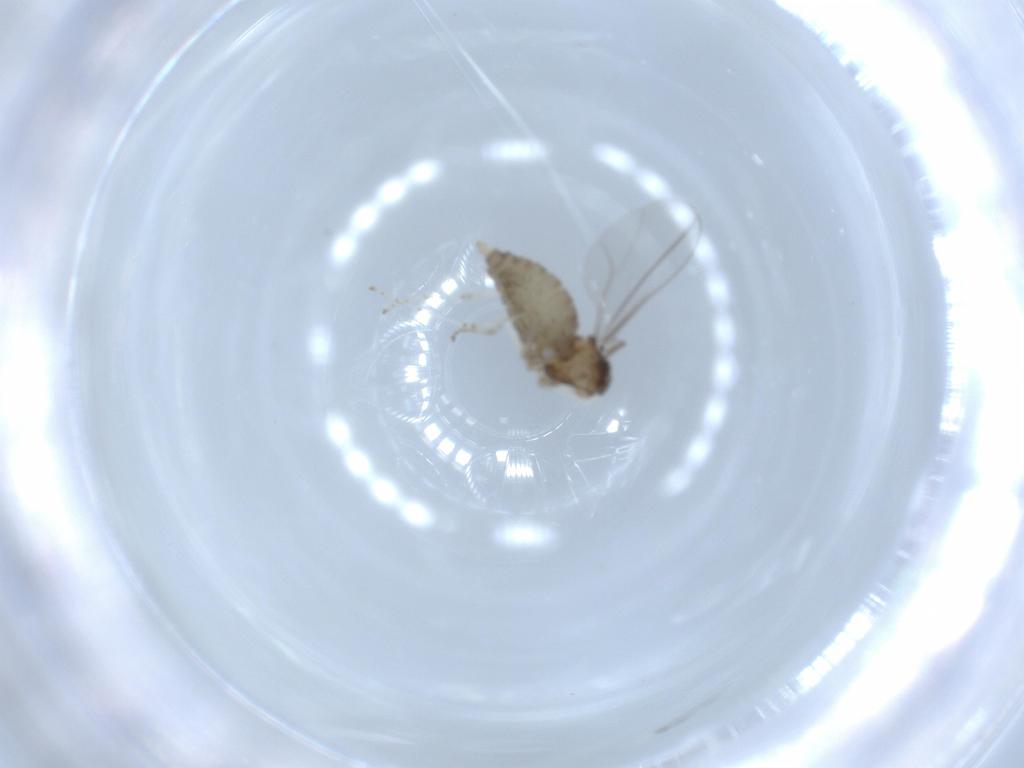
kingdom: Animalia
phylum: Arthropoda
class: Insecta
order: Diptera
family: Cecidomyiidae
